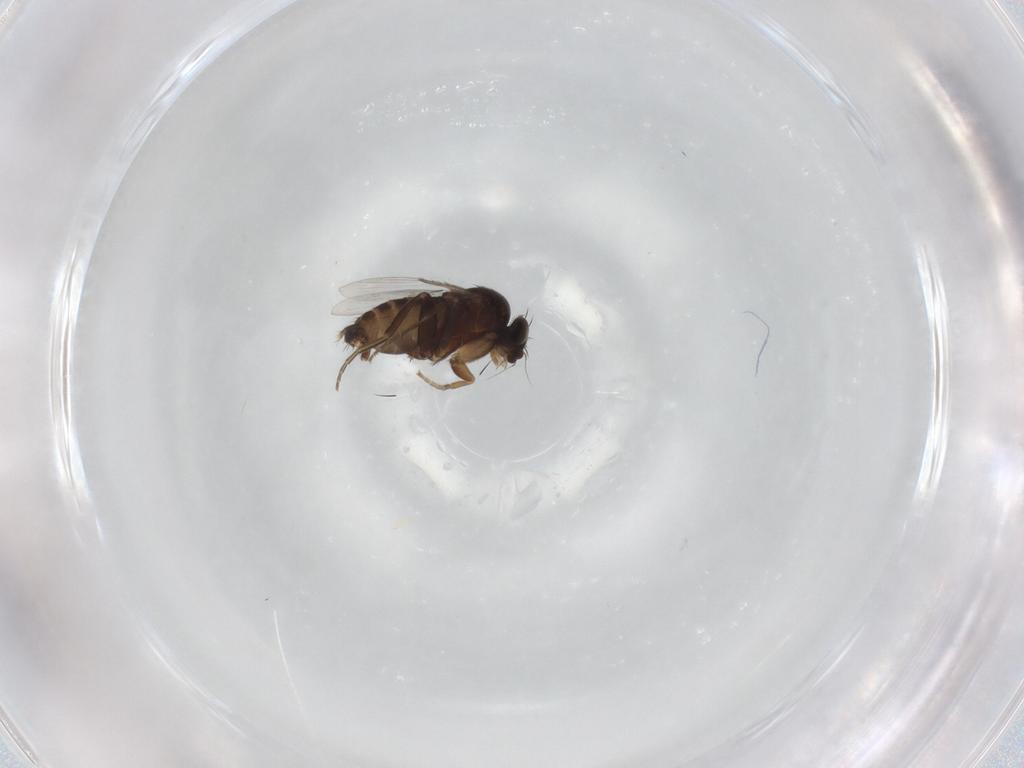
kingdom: Animalia
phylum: Arthropoda
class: Insecta
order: Diptera
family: Phoridae
